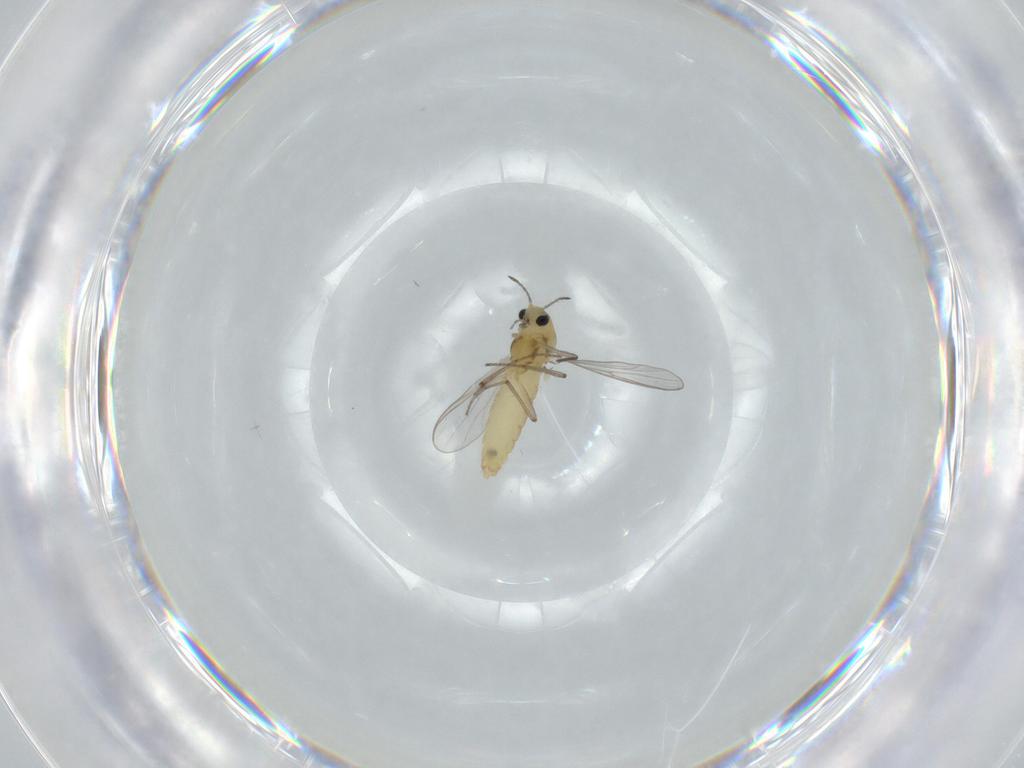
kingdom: Animalia
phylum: Arthropoda
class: Insecta
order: Diptera
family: Chironomidae
